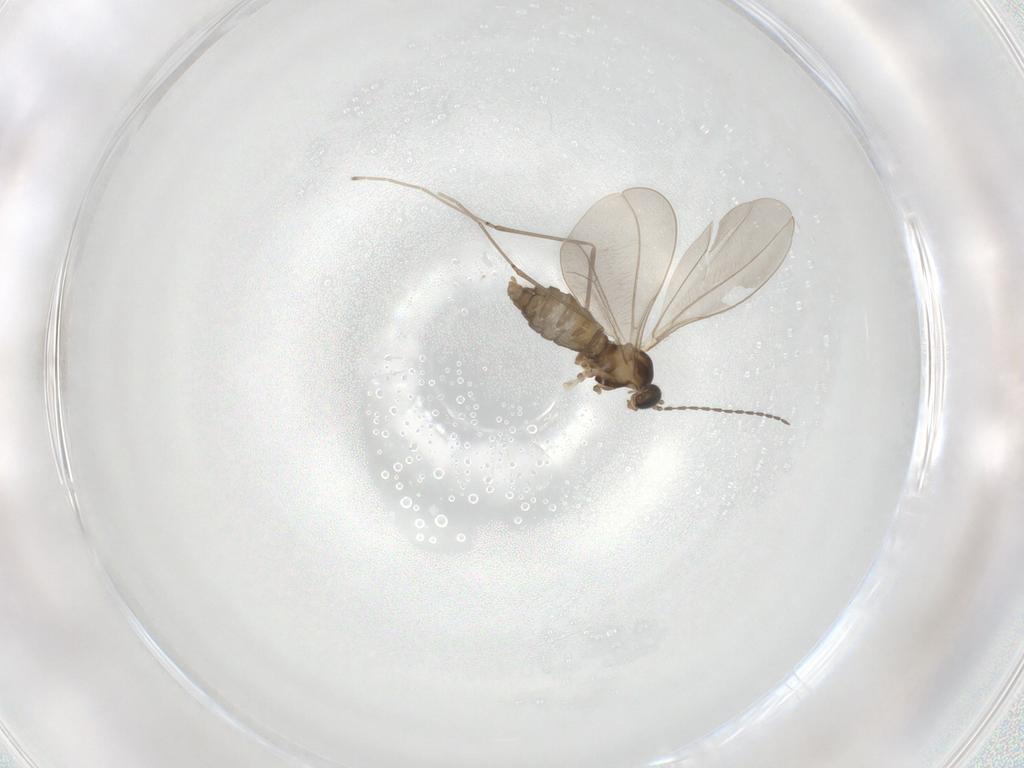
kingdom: Animalia
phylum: Arthropoda
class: Insecta
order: Diptera
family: Cecidomyiidae
